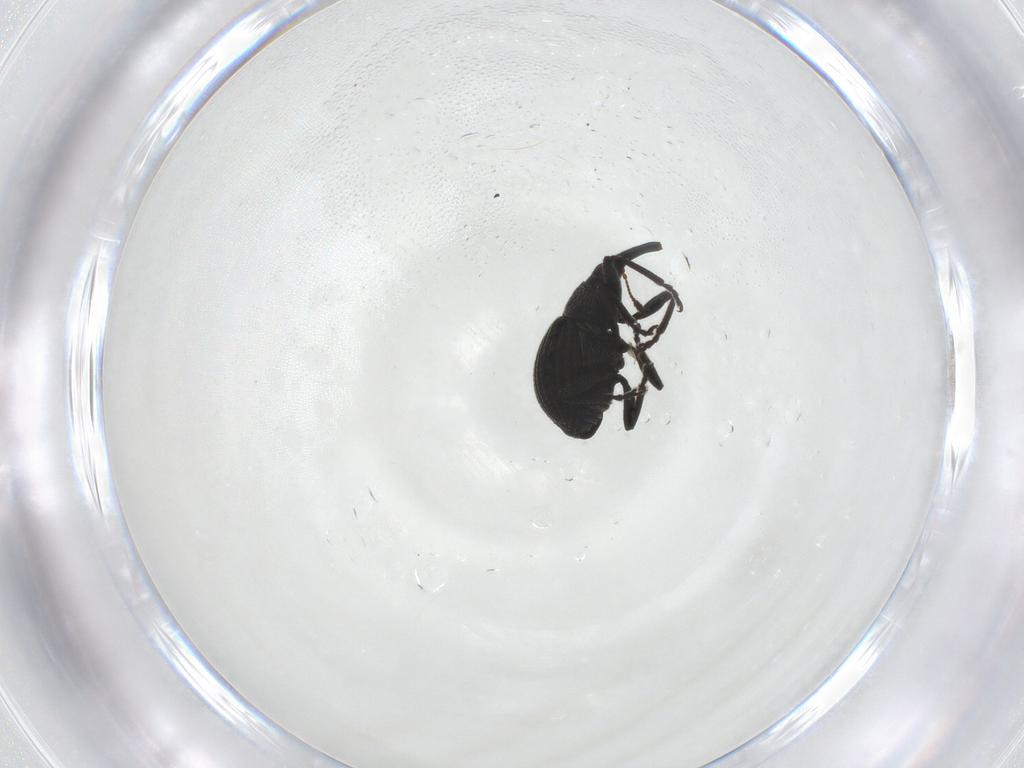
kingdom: Animalia
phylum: Arthropoda
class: Insecta
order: Coleoptera
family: Brentidae
